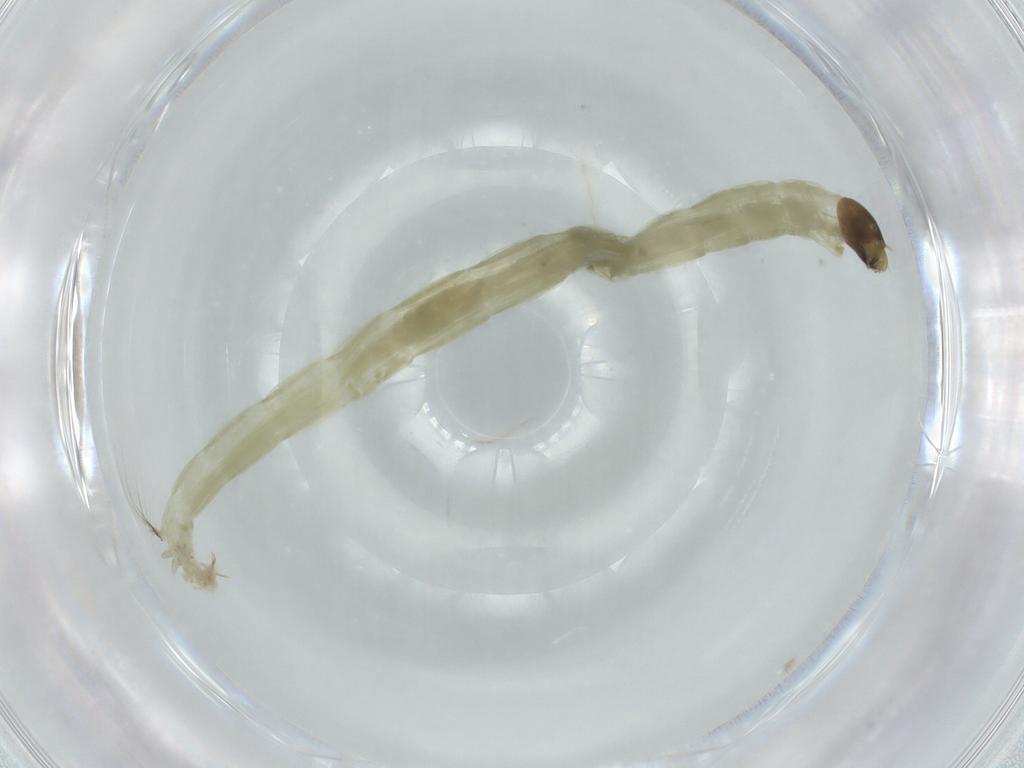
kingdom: Animalia
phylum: Arthropoda
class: Insecta
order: Diptera
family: Chironomidae
